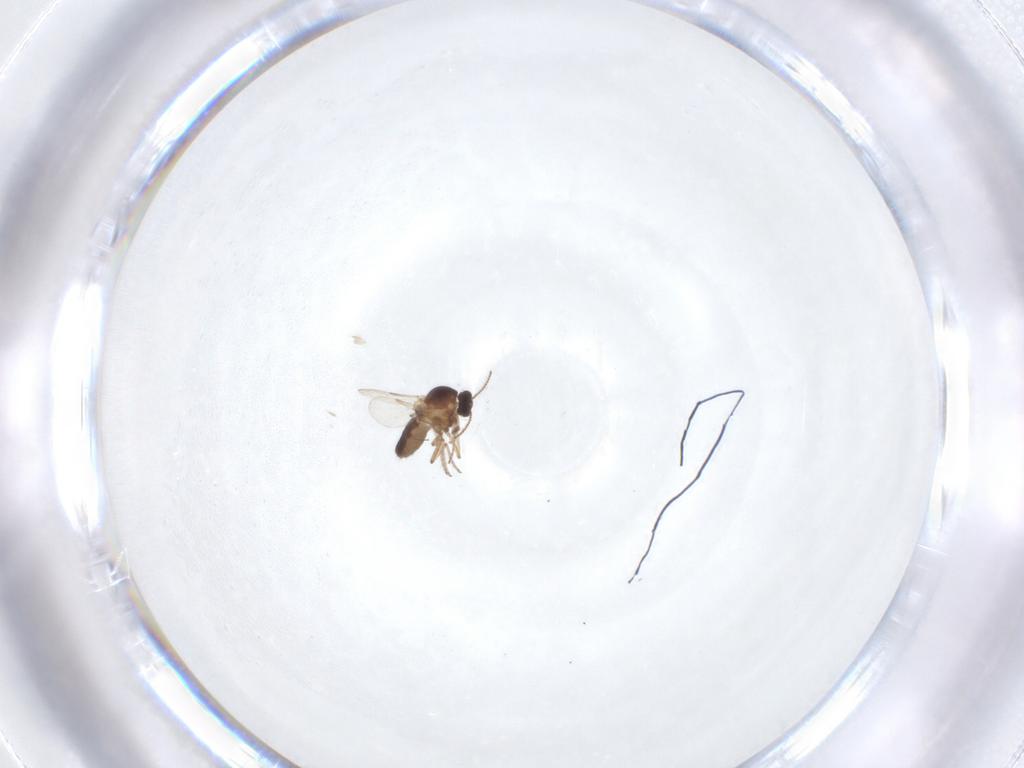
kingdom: Animalia
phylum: Arthropoda
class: Insecta
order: Diptera
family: Ceratopogonidae
